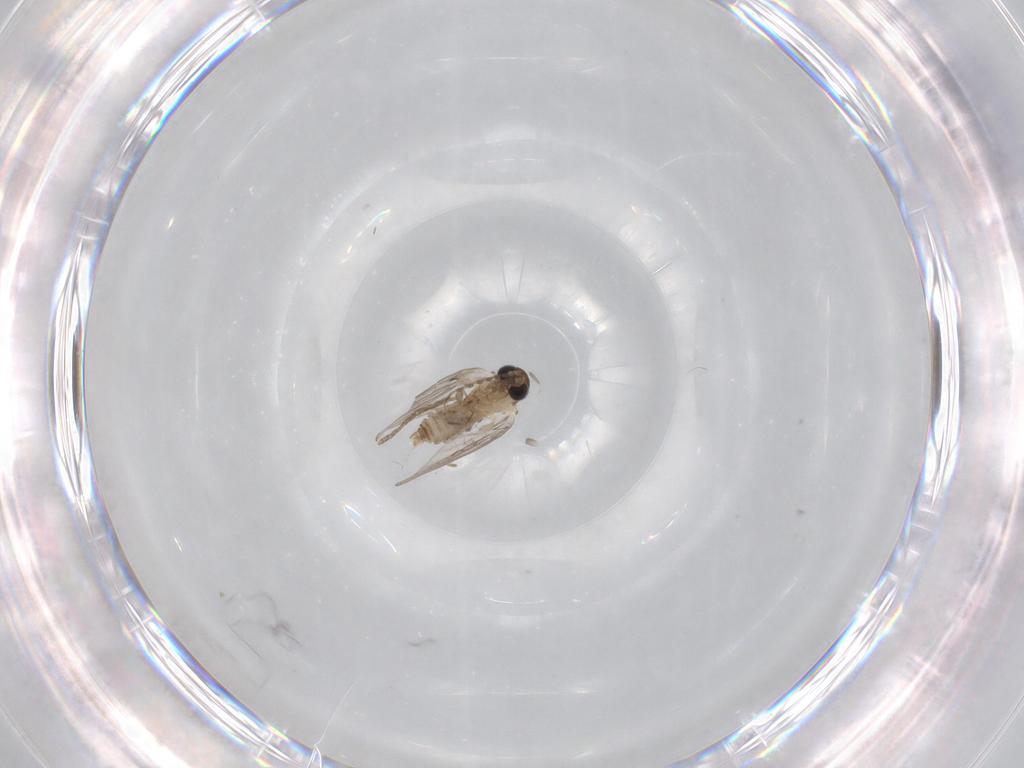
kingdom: Animalia
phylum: Arthropoda
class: Insecta
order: Diptera
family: Psychodidae
